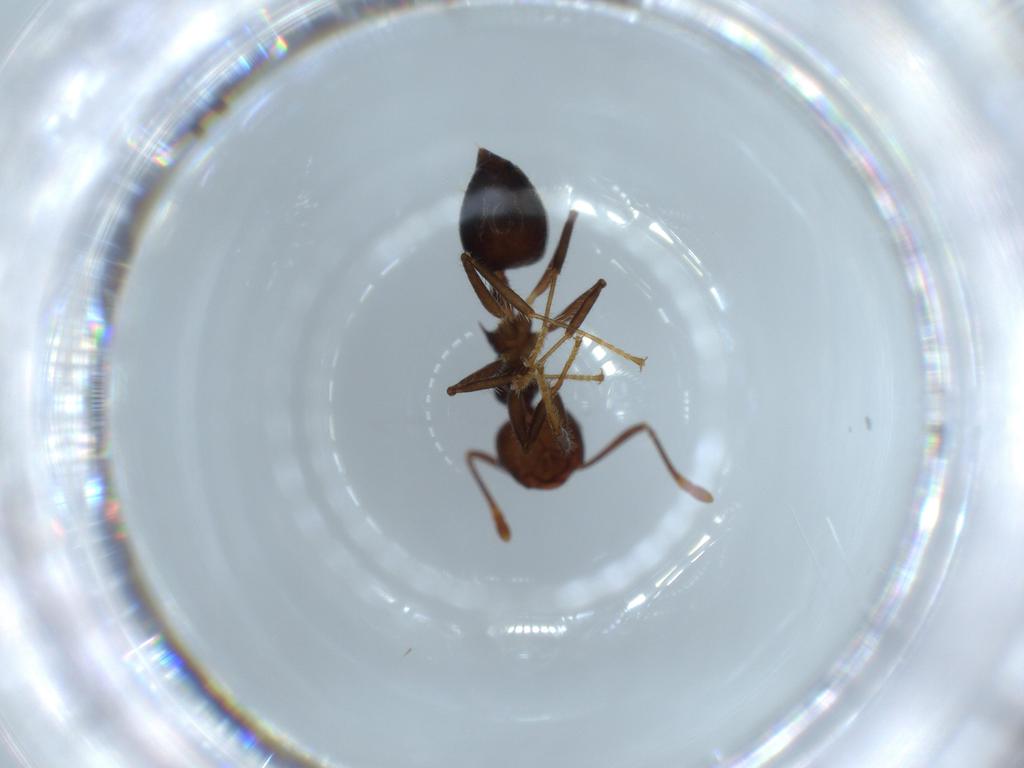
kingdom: Animalia
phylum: Arthropoda
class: Insecta
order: Hymenoptera
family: Formicidae
